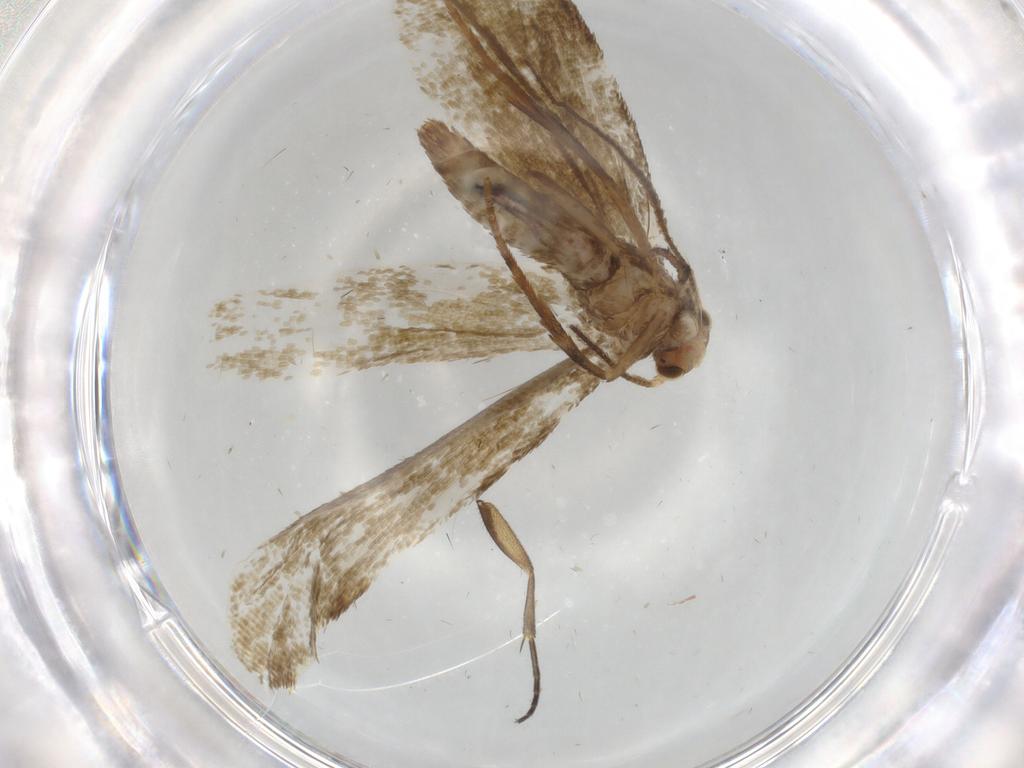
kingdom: Animalia
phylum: Arthropoda
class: Insecta
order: Lepidoptera
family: Tineidae
